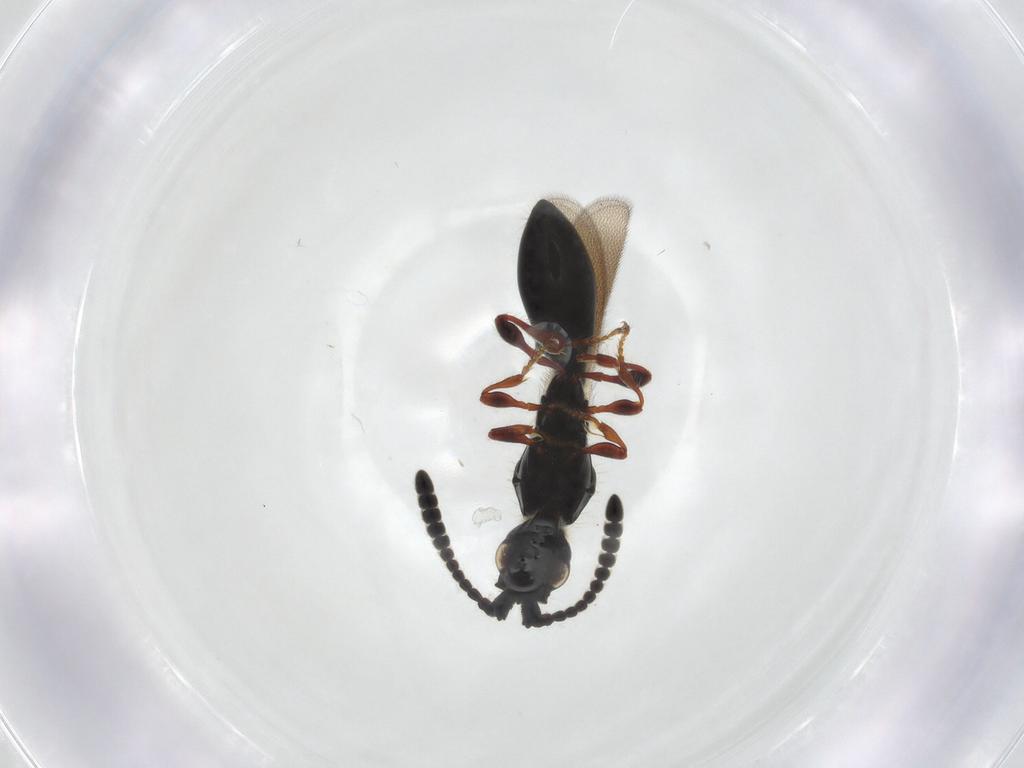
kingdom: Animalia
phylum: Arthropoda
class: Insecta
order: Hymenoptera
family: Diapriidae
